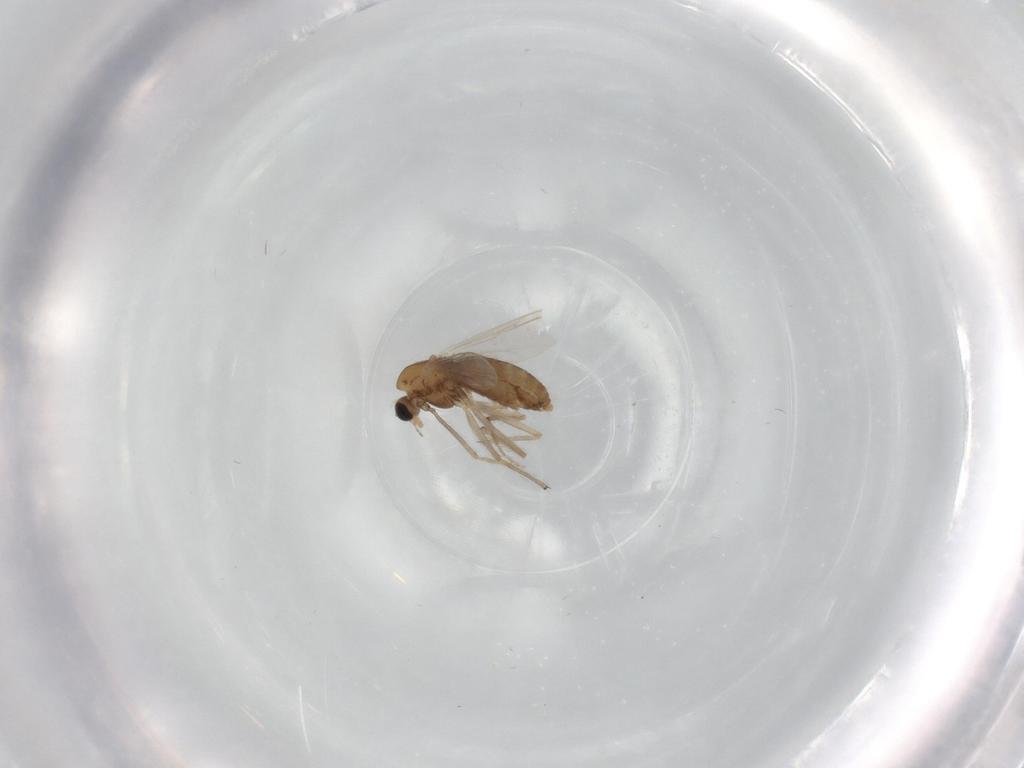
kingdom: Animalia
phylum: Arthropoda
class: Insecta
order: Diptera
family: Chironomidae
